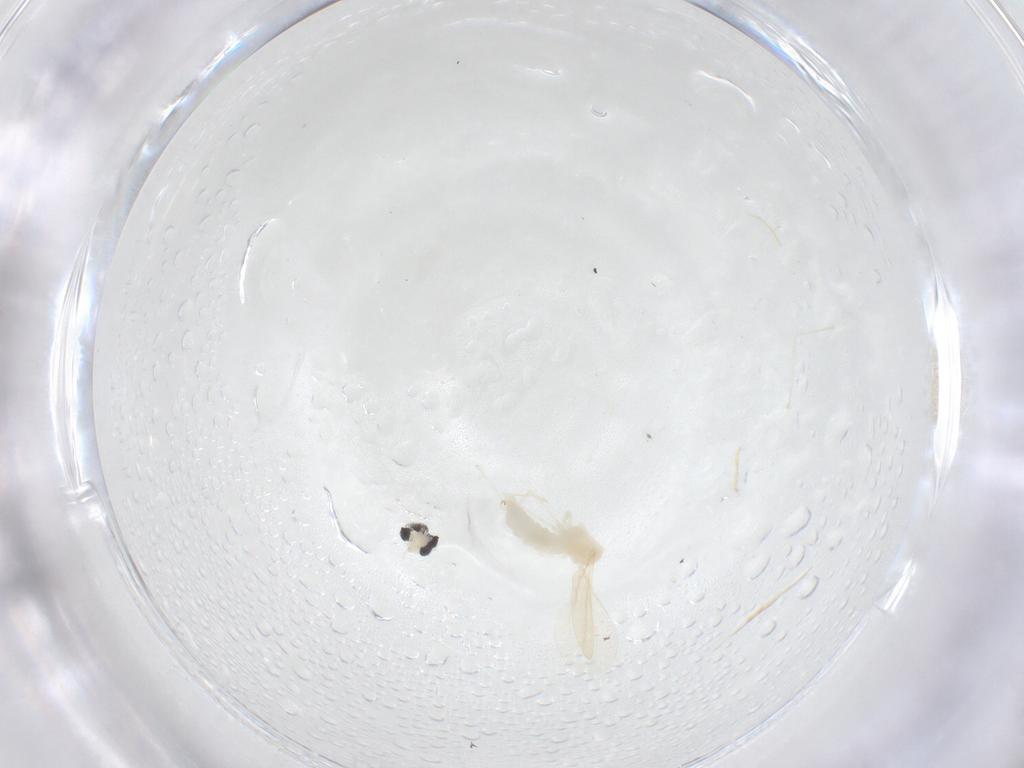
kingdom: Animalia
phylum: Arthropoda
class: Insecta
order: Diptera
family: Cecidomyiidae
